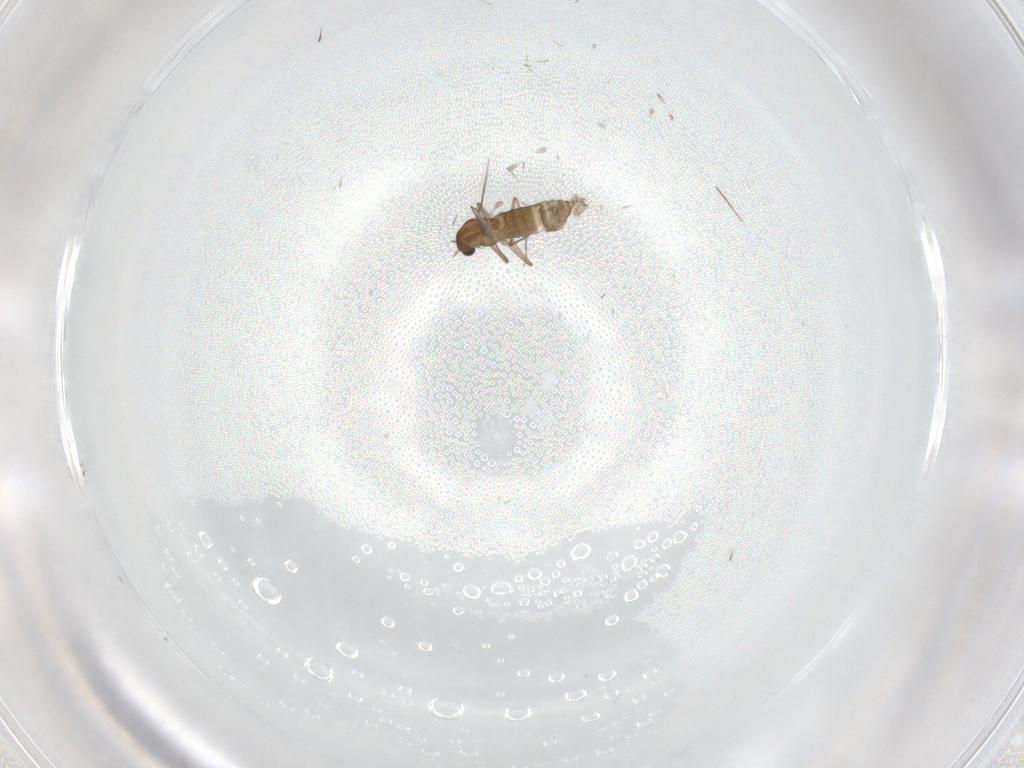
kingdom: Animalia
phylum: Arthropoda
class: Insecta
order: Diptera
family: Chironomidae
